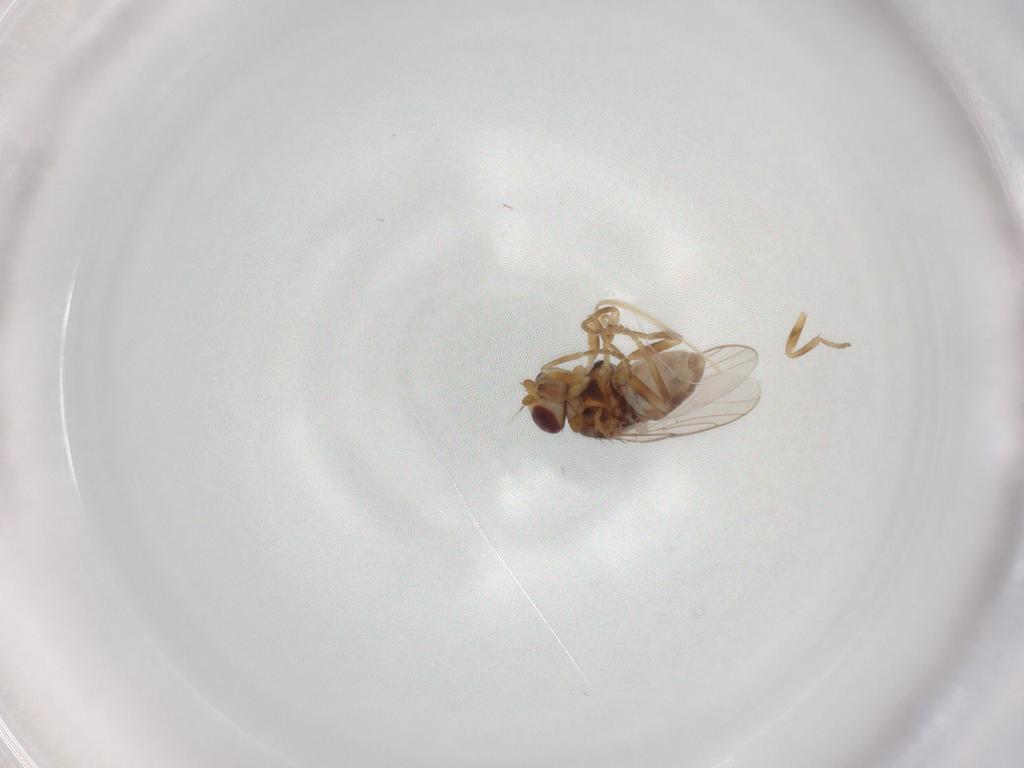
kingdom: Animalia
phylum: Arthropoda
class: Insecta
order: Diptera
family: Chloropidae
